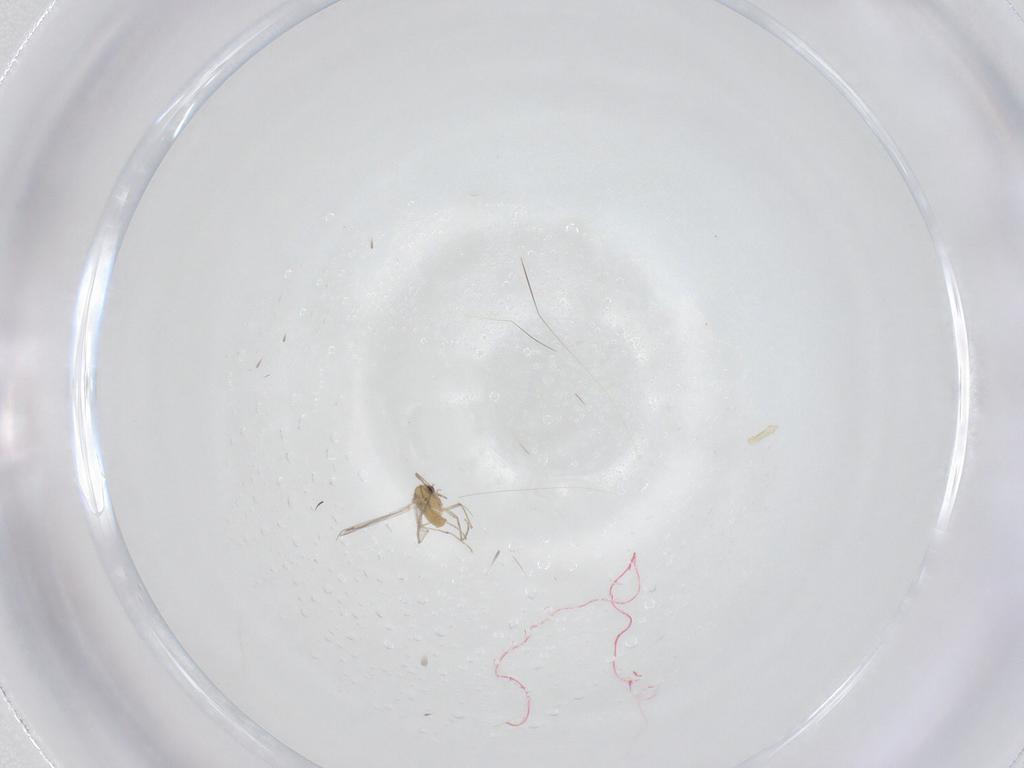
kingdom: Animalia
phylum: Arthropoda
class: Insecta
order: Diptera
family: Chironomidae
